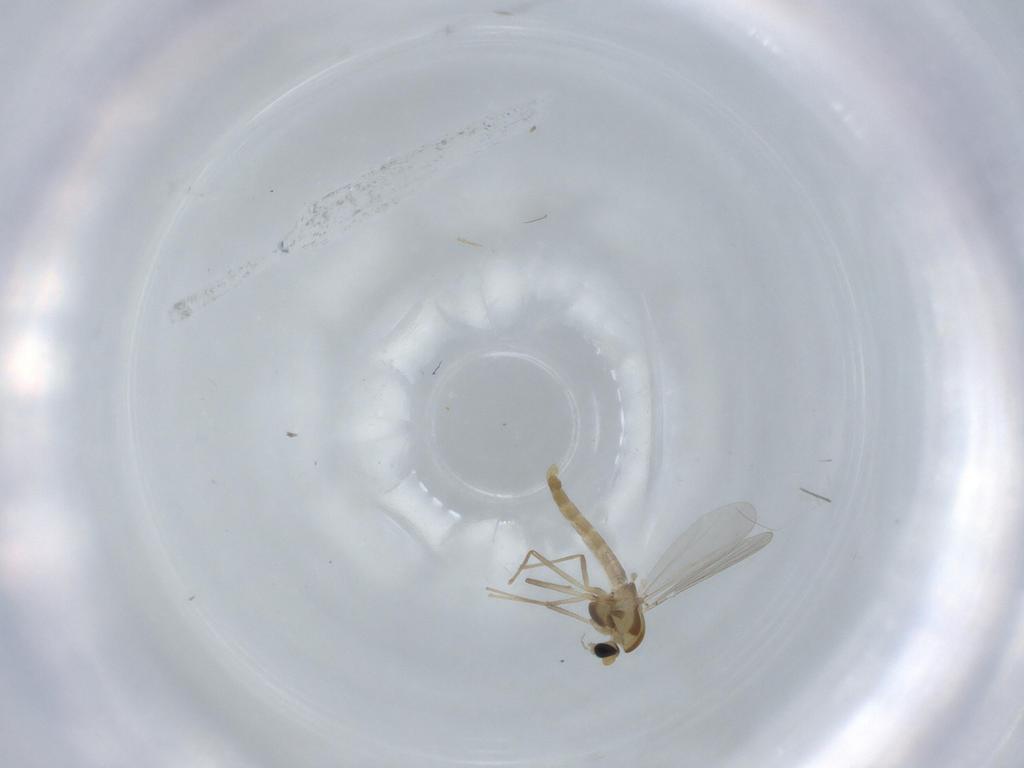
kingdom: Animalia
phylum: Arthropoda
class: Insecta
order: Diptera
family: Chironomidae
